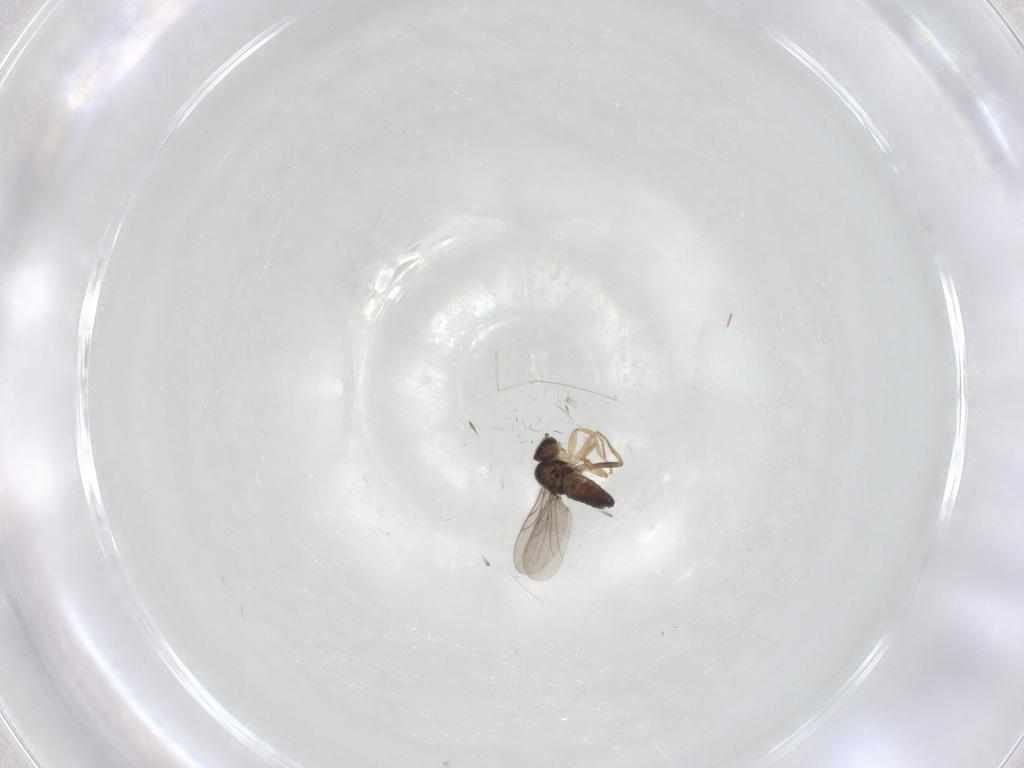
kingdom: Animalia
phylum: Arthropoda
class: Insecta
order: Diptera
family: Hybotidae
